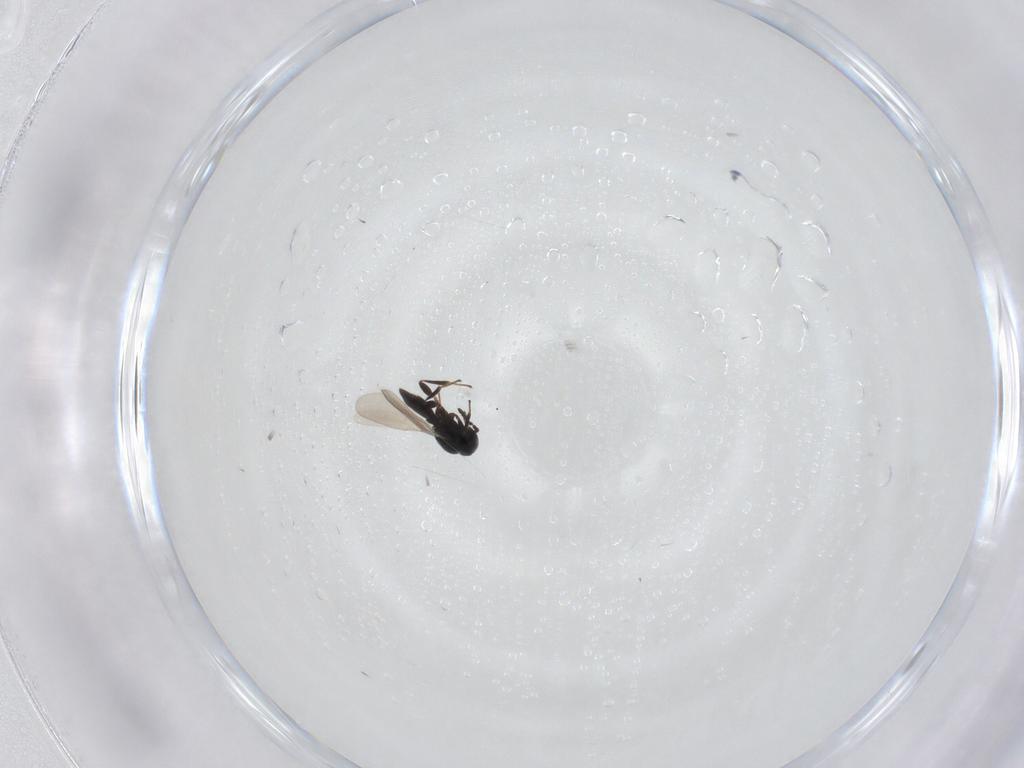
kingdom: Animalia
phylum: Arthropoda
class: Insecta
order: Hymenoptera
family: Platygastridae
